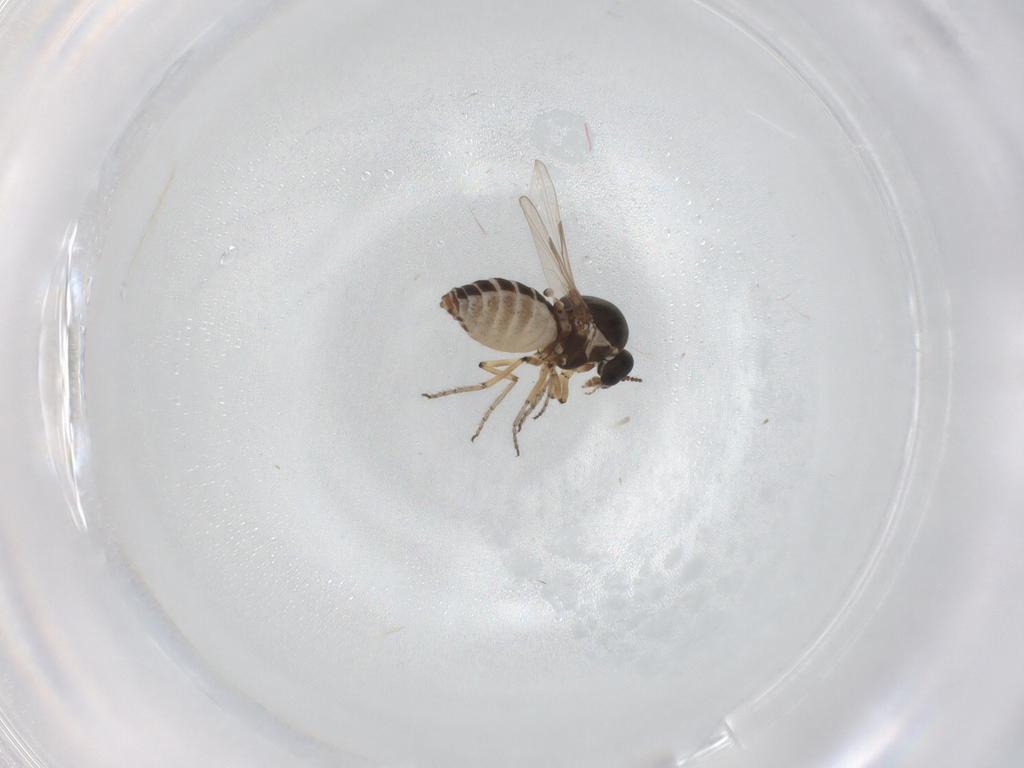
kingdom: Animalia
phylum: Arthropoda
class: Insecta
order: Diptera
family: Ceratopogonidae
